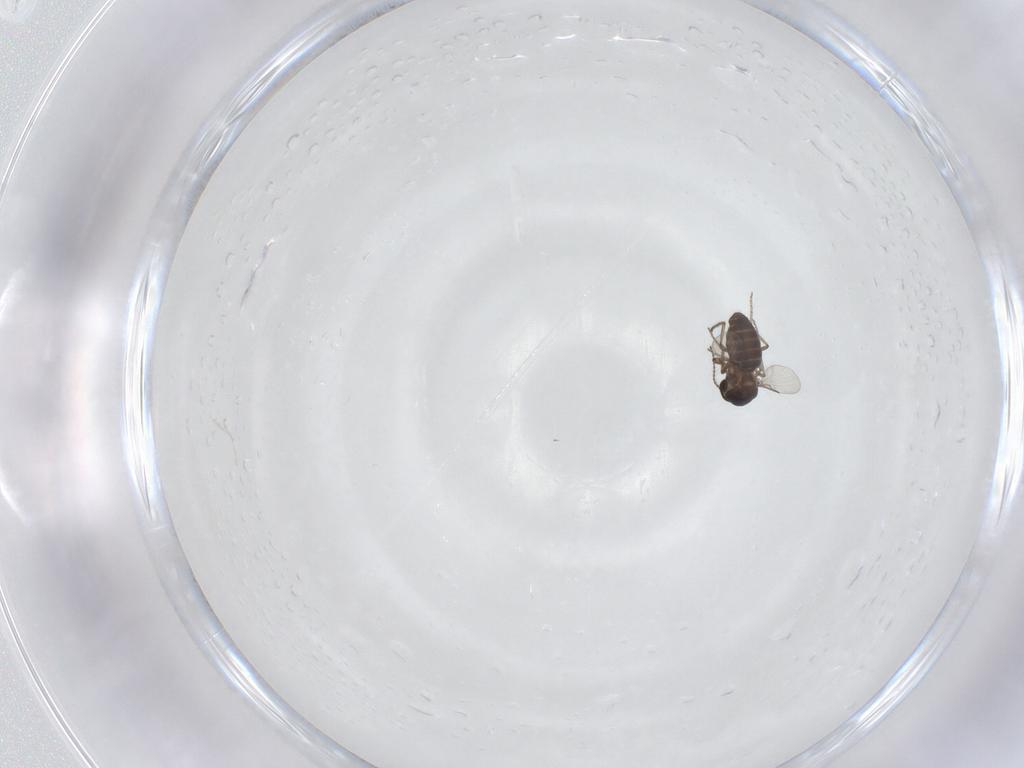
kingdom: Animalia
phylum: Arthropoda
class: Insecta
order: Diptera
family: Ceratopogonidae
